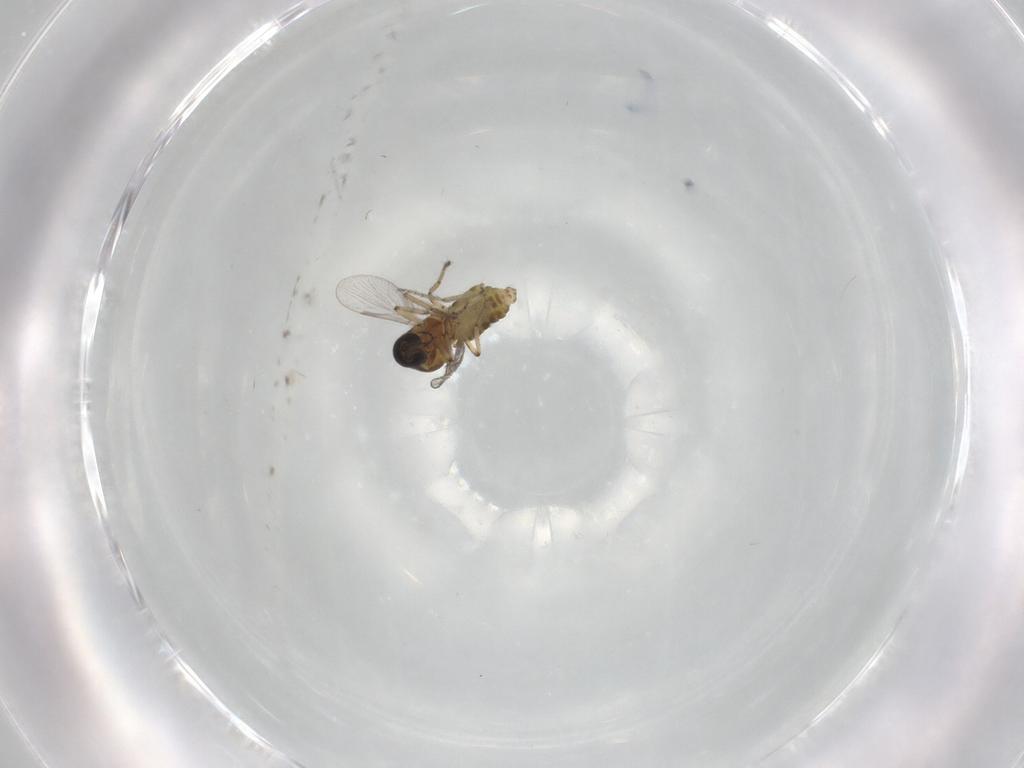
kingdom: Animalia
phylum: Arthropoda
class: Insecta
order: Diptera
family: Ceratopogonidae
